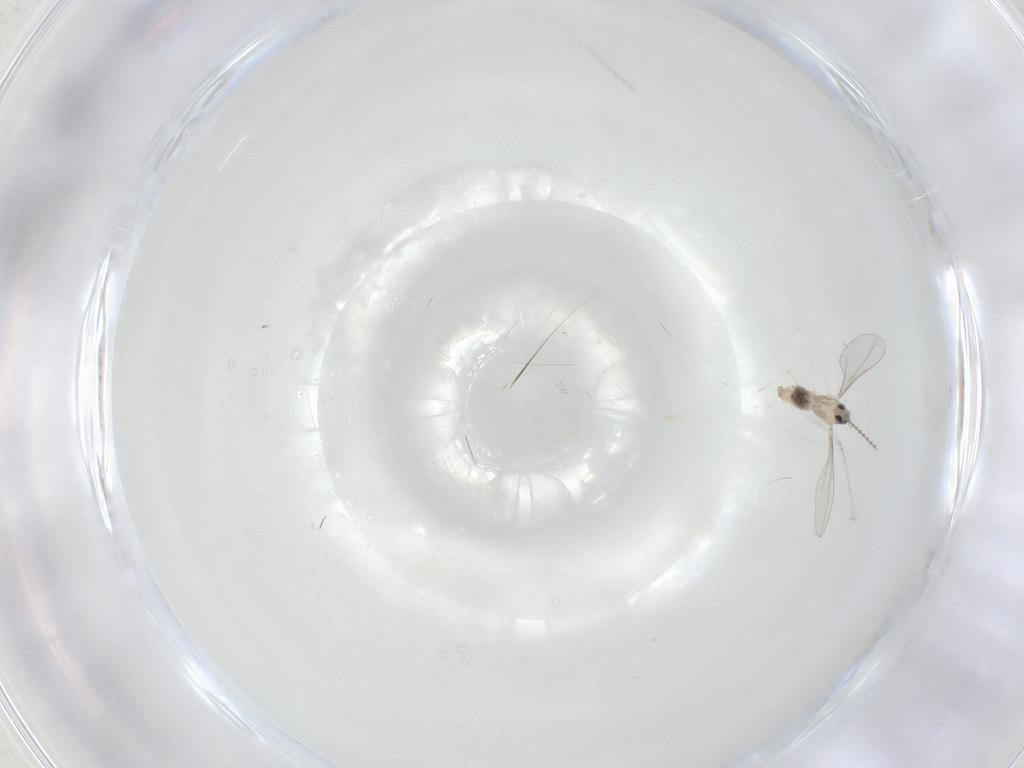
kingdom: Animalia
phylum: Arthropoda
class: Insecta
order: Diptera
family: Cecidomyiidae
